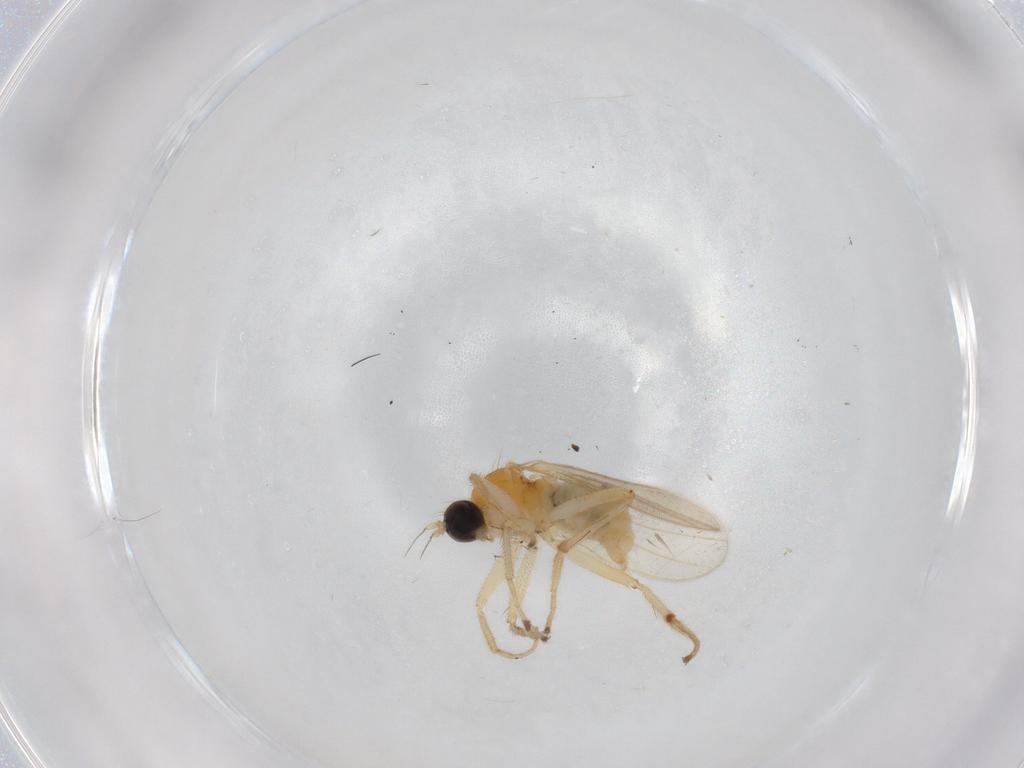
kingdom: Animalia
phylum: Arthropoda
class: Insecta
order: Diptera
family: Hybotidae
